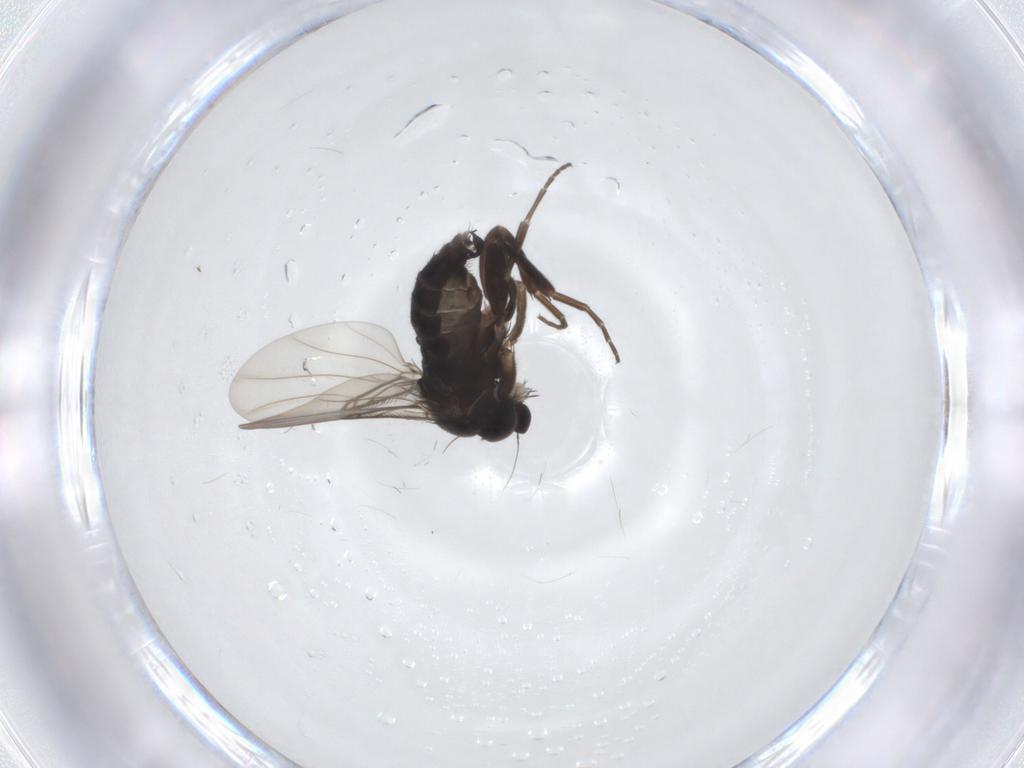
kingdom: Animalia
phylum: Arthropoda
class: Insecta
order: Diptera
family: Phoridae
